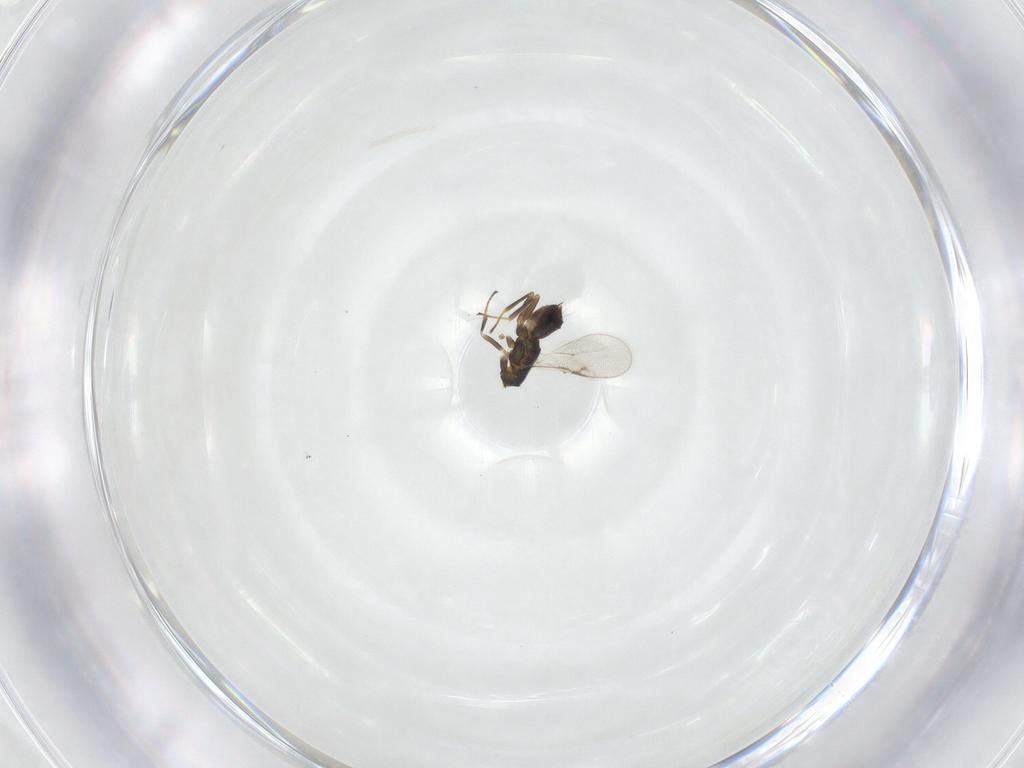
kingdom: Animalia
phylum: Arthropoda
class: Insecta
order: Hymenoptera
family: Encyrtidae
